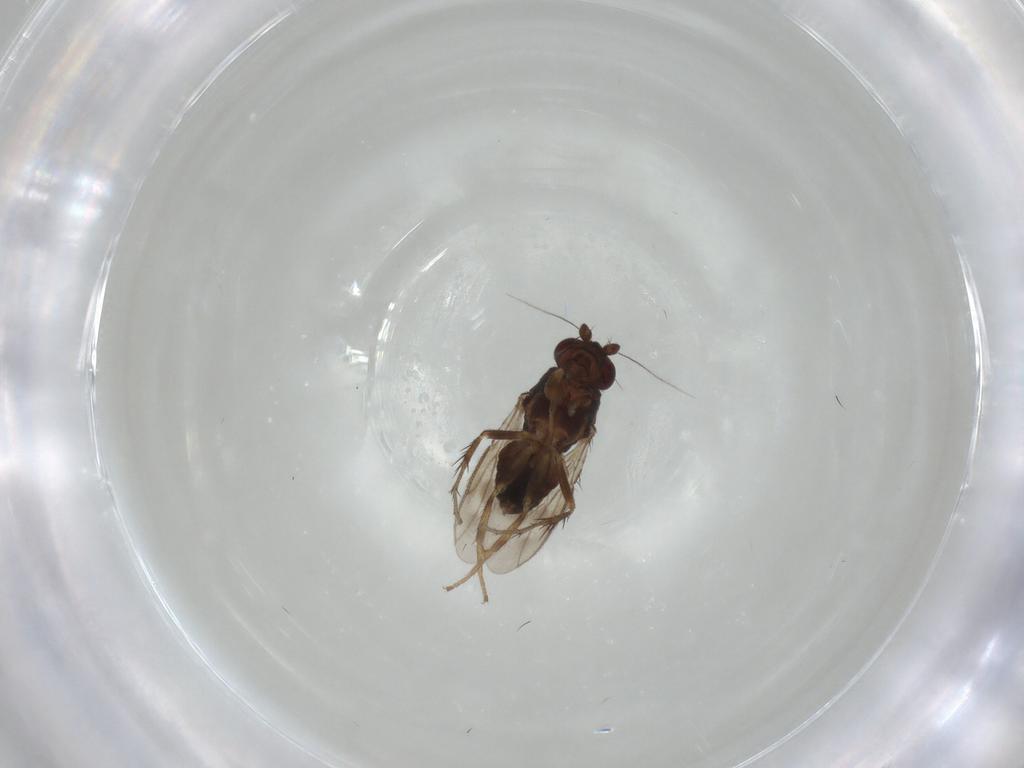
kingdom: Animalia
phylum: Arthropoda
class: Insecta
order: Diptera
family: Sphaeroceridae
